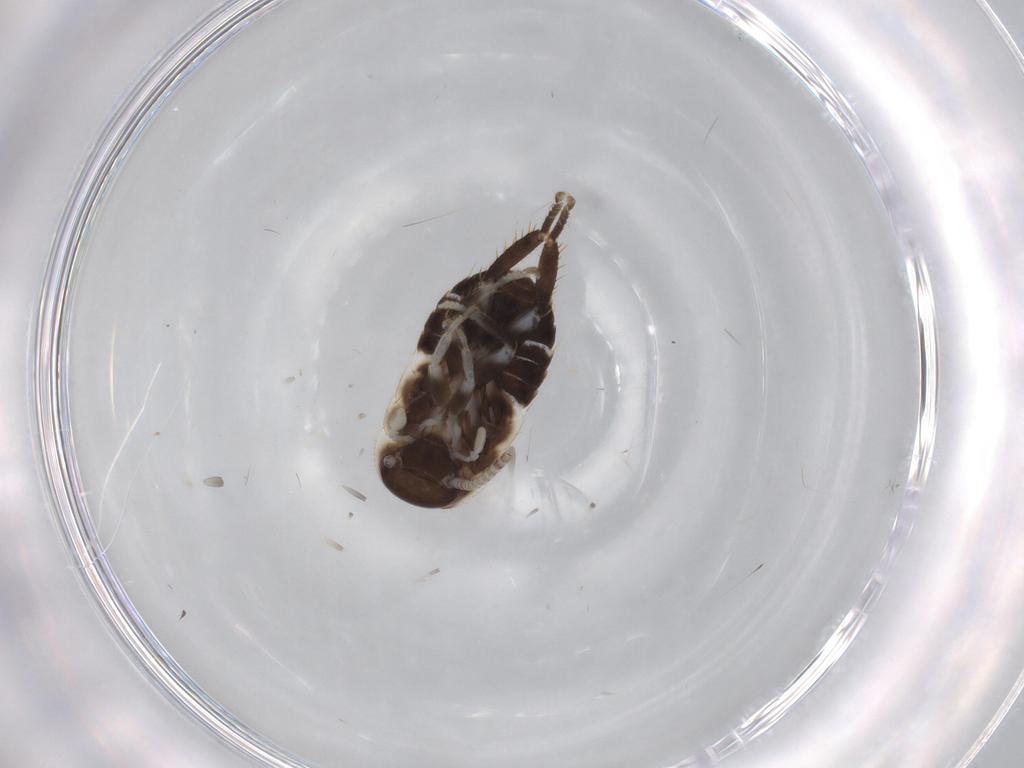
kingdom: Animalia
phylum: Arthropoda
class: Insecta
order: Blattodea
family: Ectobiidae
